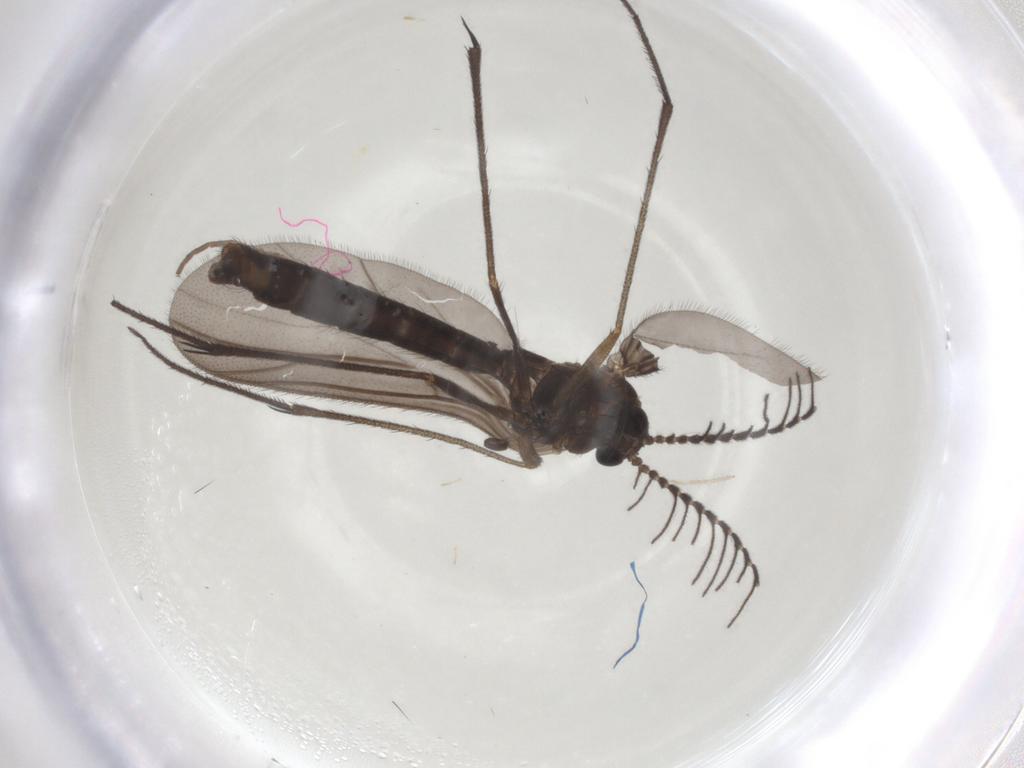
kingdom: Animalia
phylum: Arthropoda
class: Insecta
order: Diptera
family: Ditomyiidae
